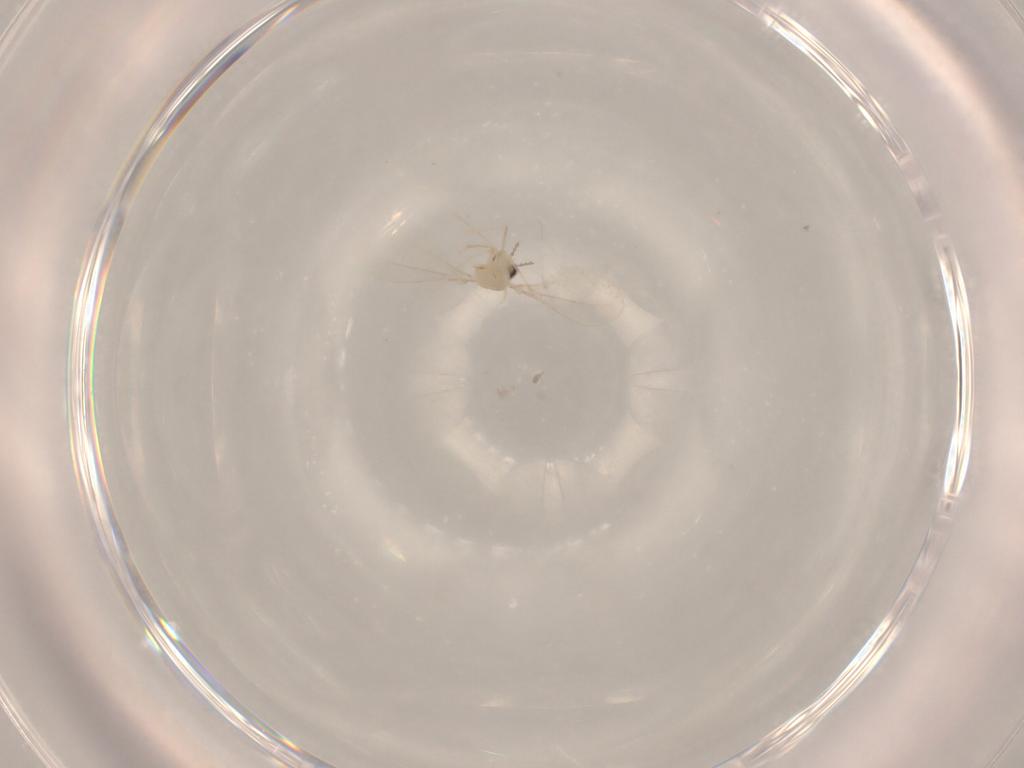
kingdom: Animalia
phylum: Arthropoda
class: Insecta
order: Diptera
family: Cecidomyiidae
